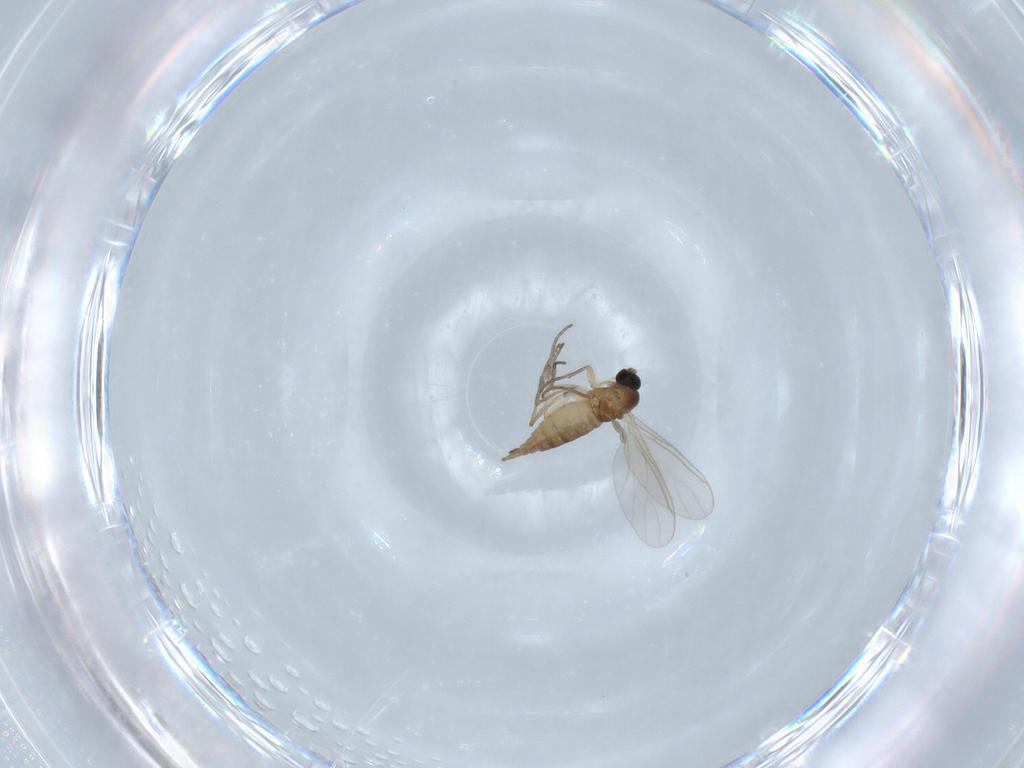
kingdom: Animalia
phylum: Arthropoda
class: Insecta
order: Diptera
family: Sciaridae
